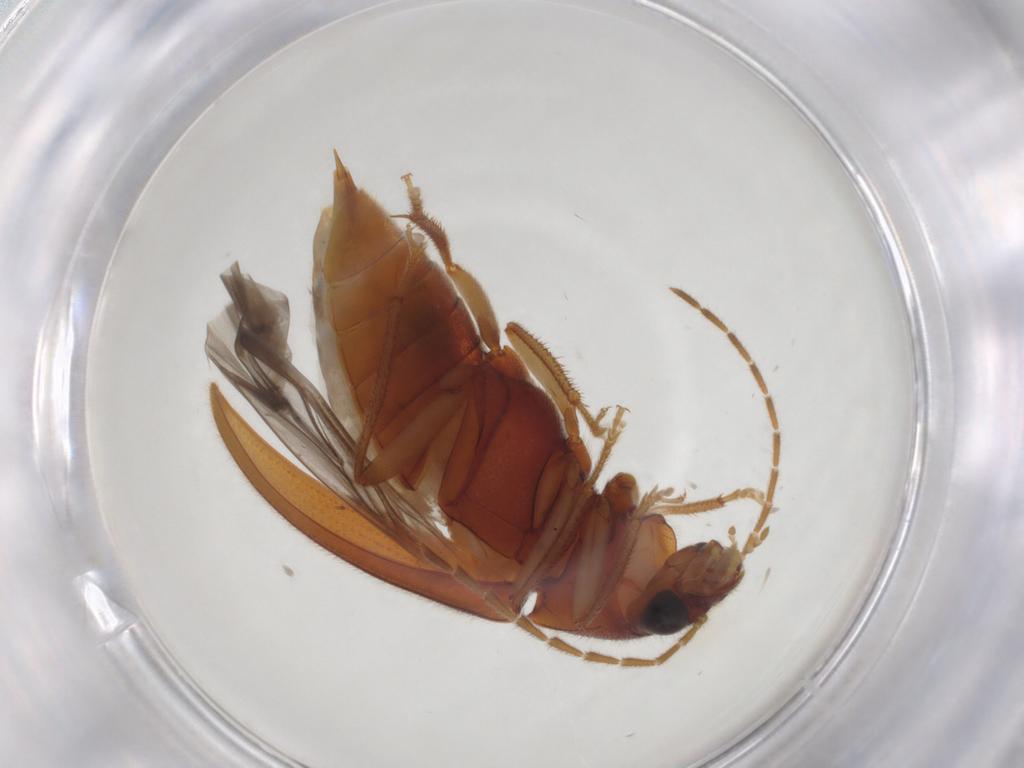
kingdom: Animalia
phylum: Arthropoda
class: Insecta
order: Coleoptera
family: Ptilodactylidae
